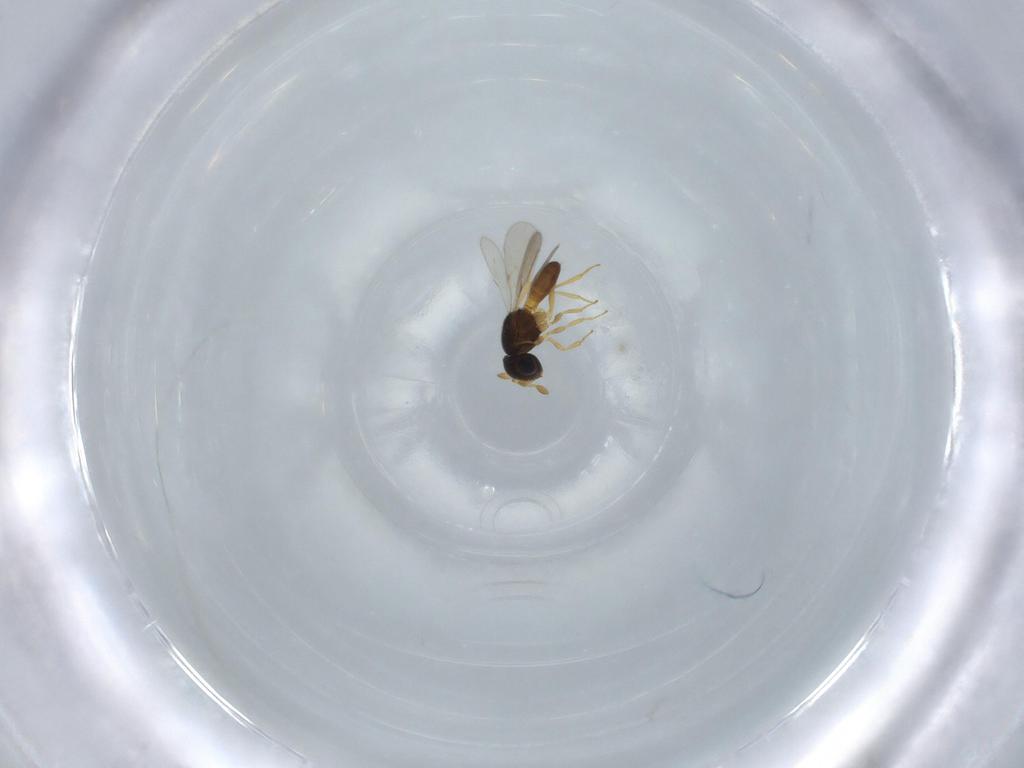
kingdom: Animalia
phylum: Arthropoda
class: Insecta
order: Hymenoptera
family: Scelionidae
